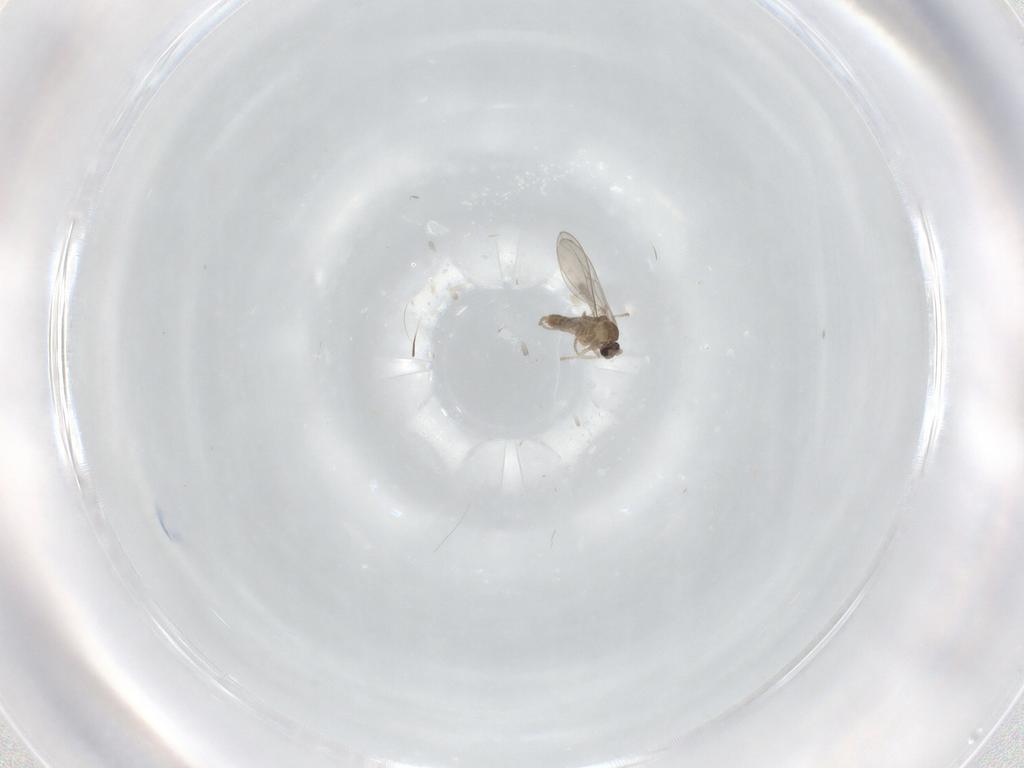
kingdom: Animalia
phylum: Arthropoda
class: Insecta
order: Diptera
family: Cecidomyiidae
